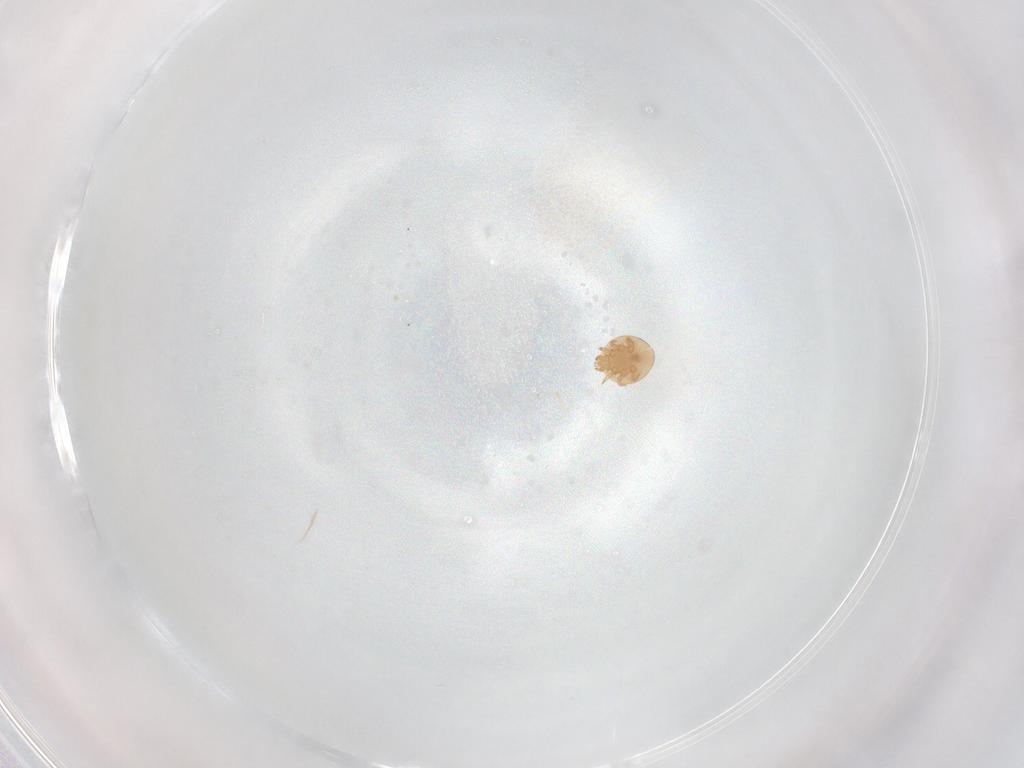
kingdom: Animalia
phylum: Arthropoda
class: Arachnida
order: Mesostigmata
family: Trematuridae
